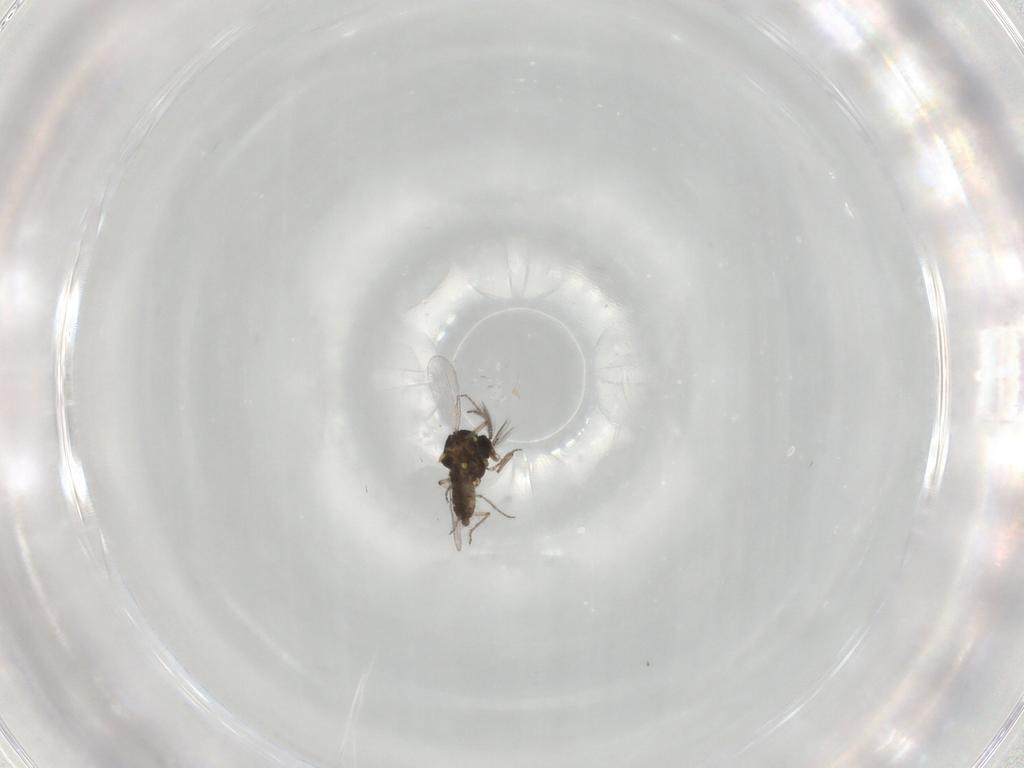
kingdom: Animalia
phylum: Arthropoda
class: Insecta
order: Diptera
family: Ceratopogonidae
